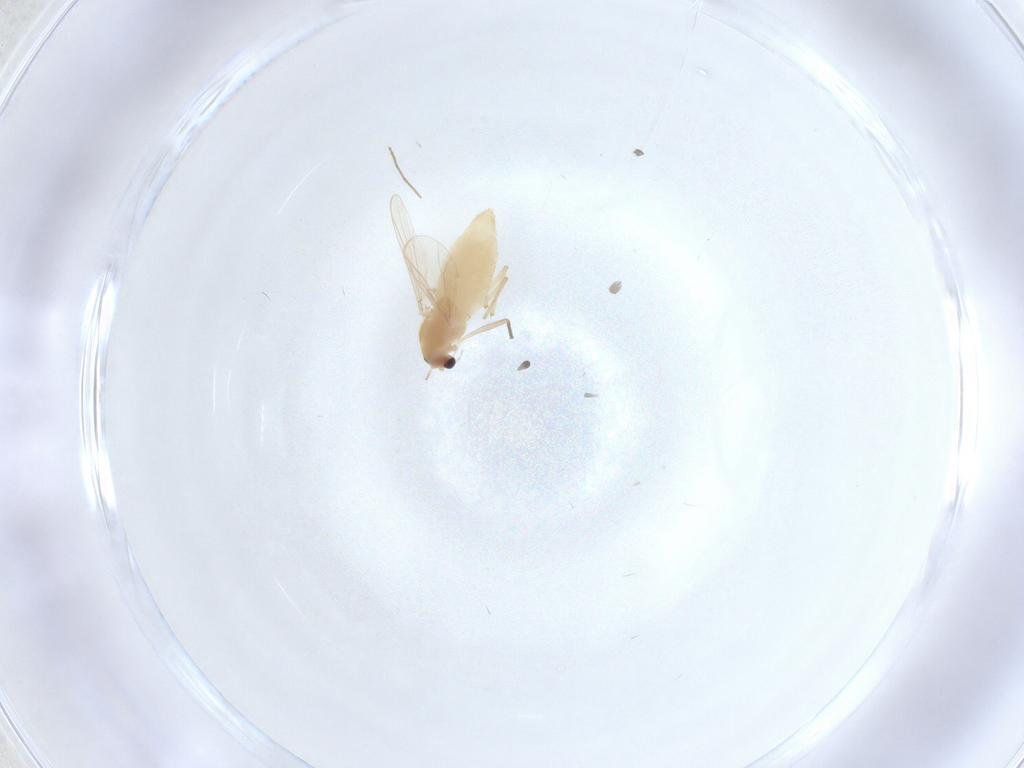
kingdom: Animalia
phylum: Arthropoda
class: Insecta
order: Diptera
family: Chironomidae
